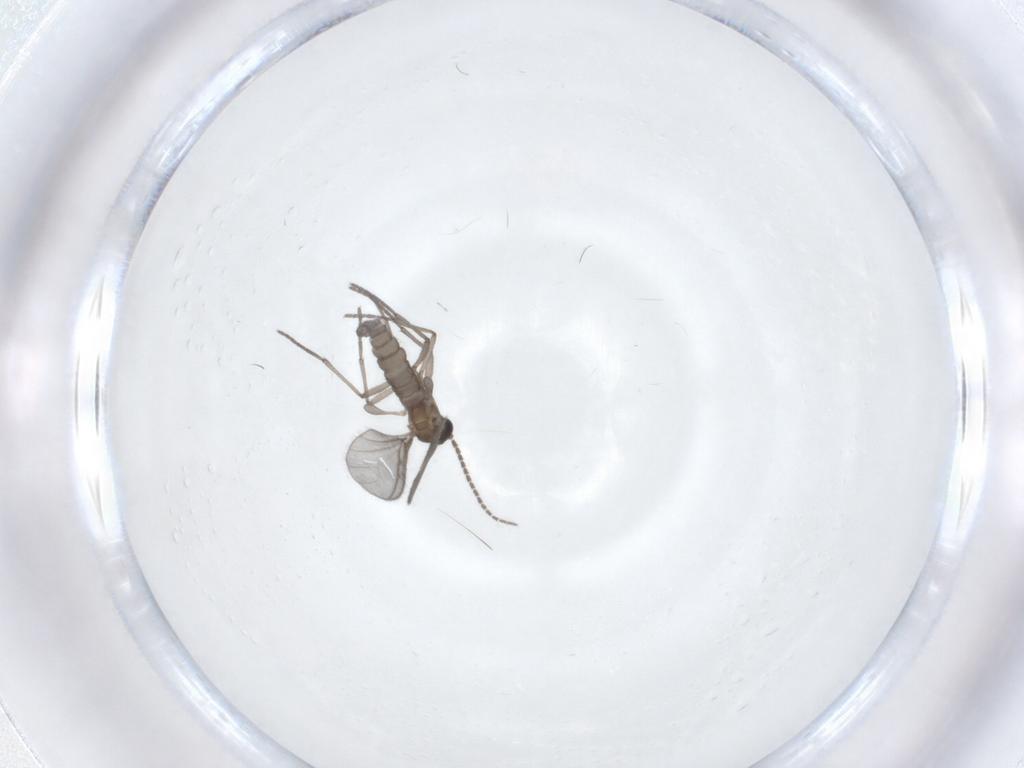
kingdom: Animalia
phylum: Arthropoda
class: Insecta
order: Diptera
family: Sciaridae
